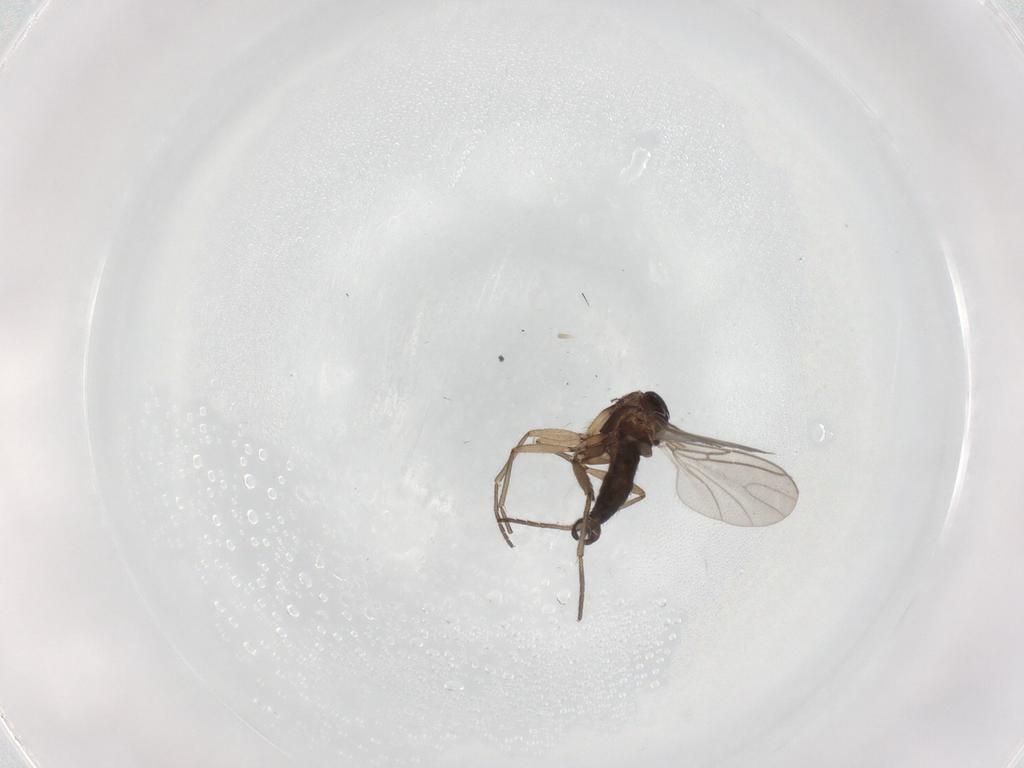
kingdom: Animalia
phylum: Arthropoda
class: Insecta
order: Diptera
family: Sciaridae
